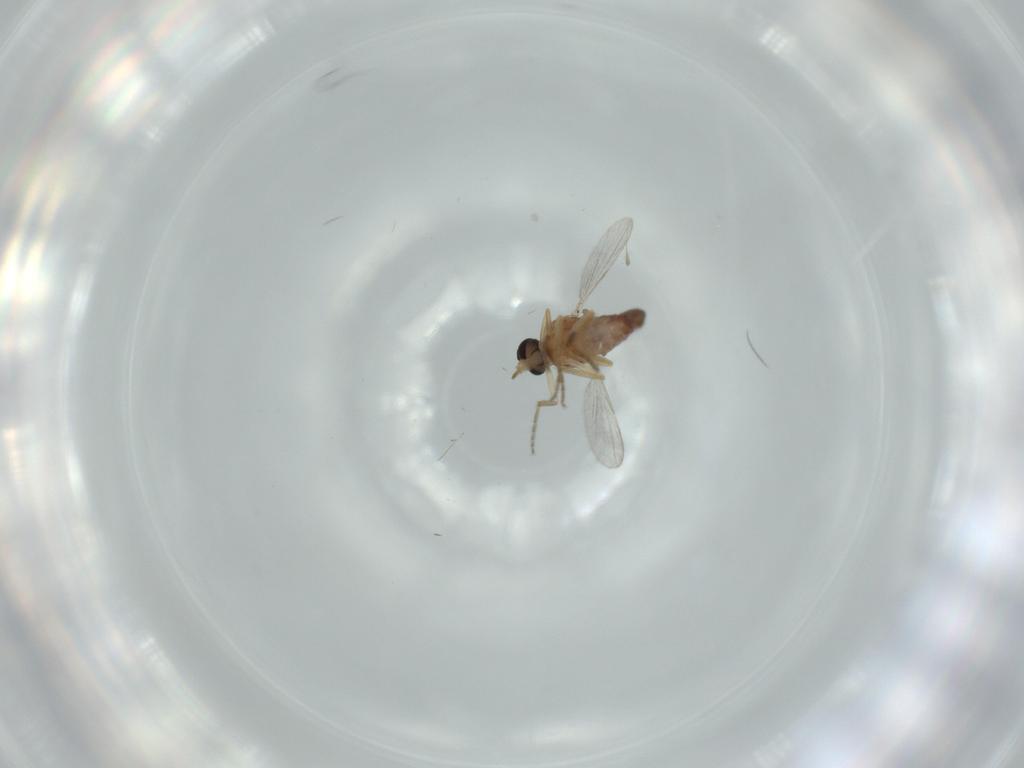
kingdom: Animalia
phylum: Arthropoda
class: Insecta
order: Diptera
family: Ceratopogonidae
